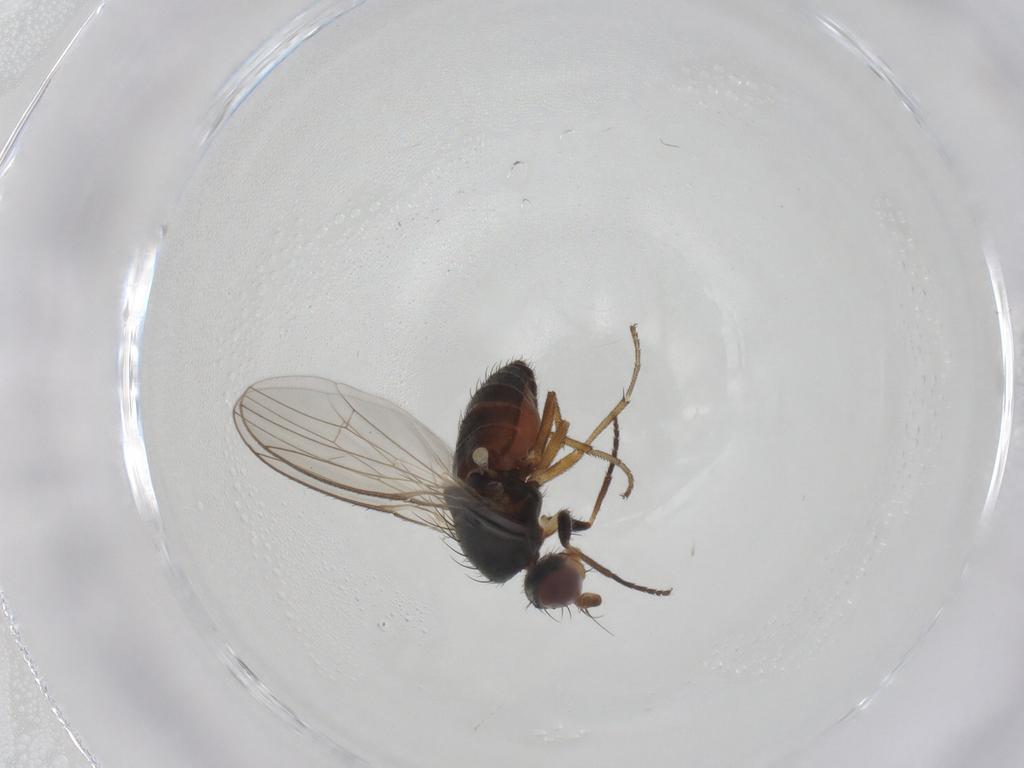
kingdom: Animalia
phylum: Arthropoda
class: Insecta
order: Diptera
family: Heleomyzidae
